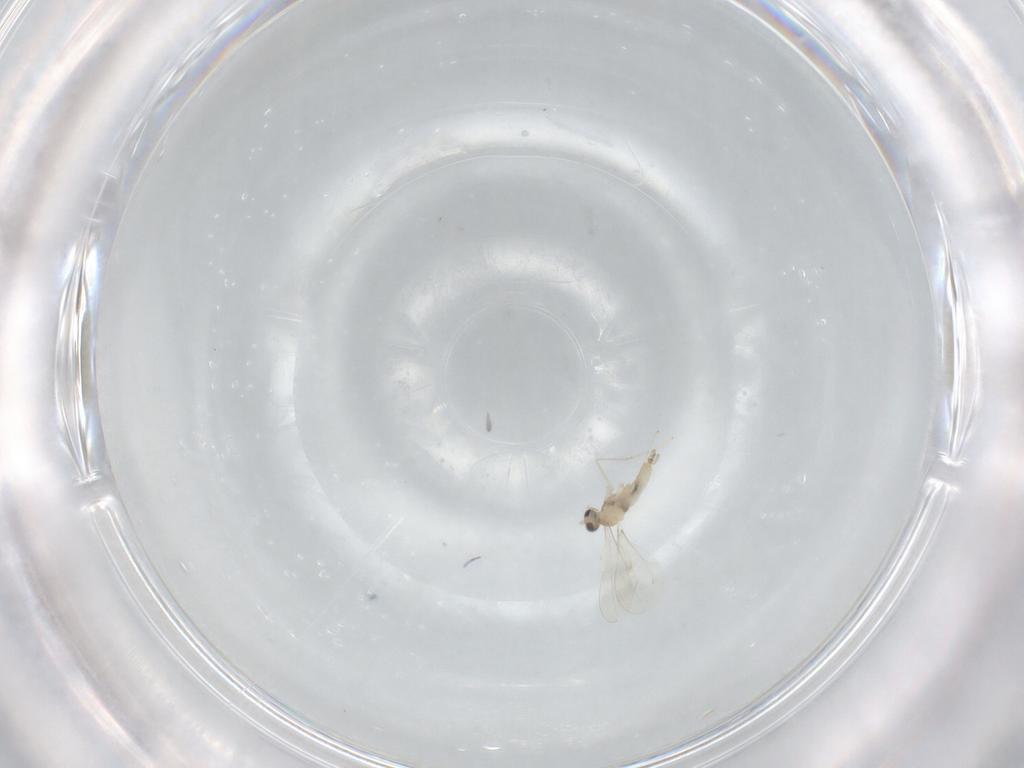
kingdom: Animalia
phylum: Arthropoda
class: Insecta
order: Diptera
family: Cecidomyiidae
